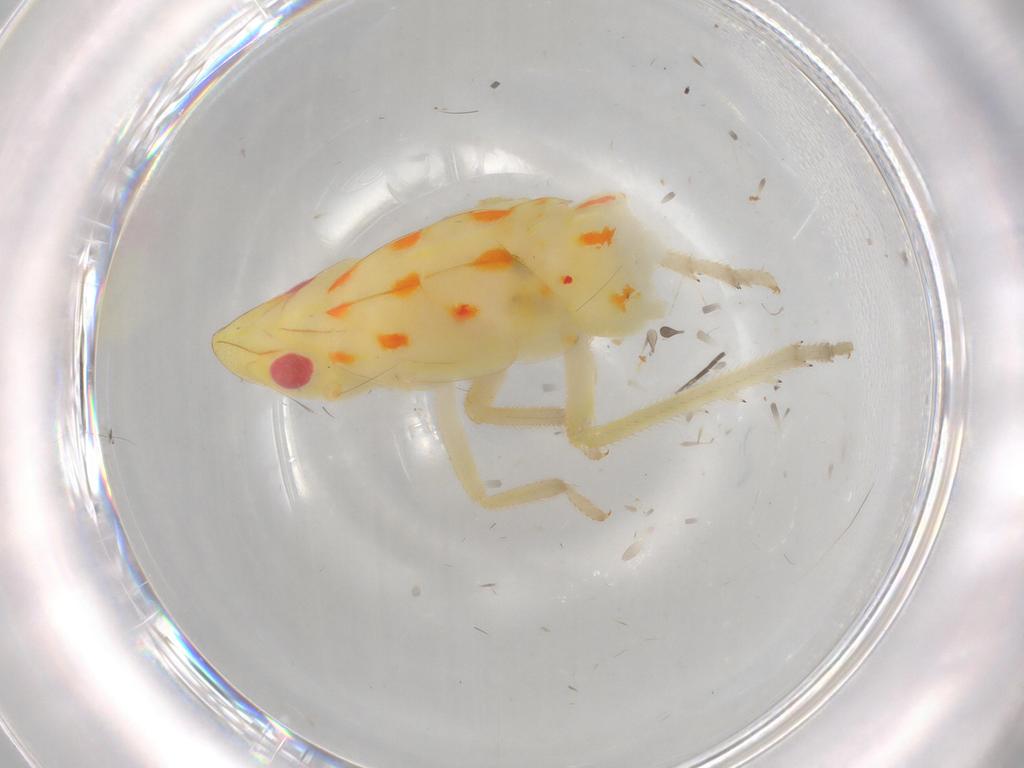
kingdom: Animalia
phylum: Arthropoda
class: Insecta
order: Hemiptera
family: Tropiduchidae
